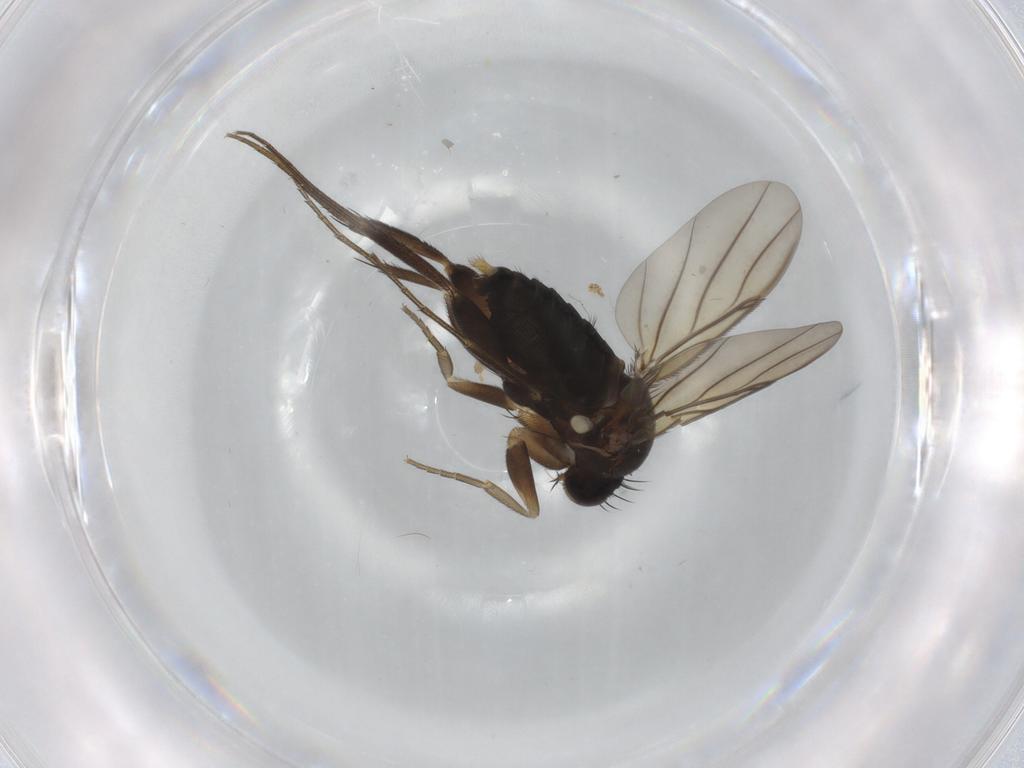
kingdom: Animalia
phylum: Arthropoda
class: Insecta
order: Diptera
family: Phoridae
